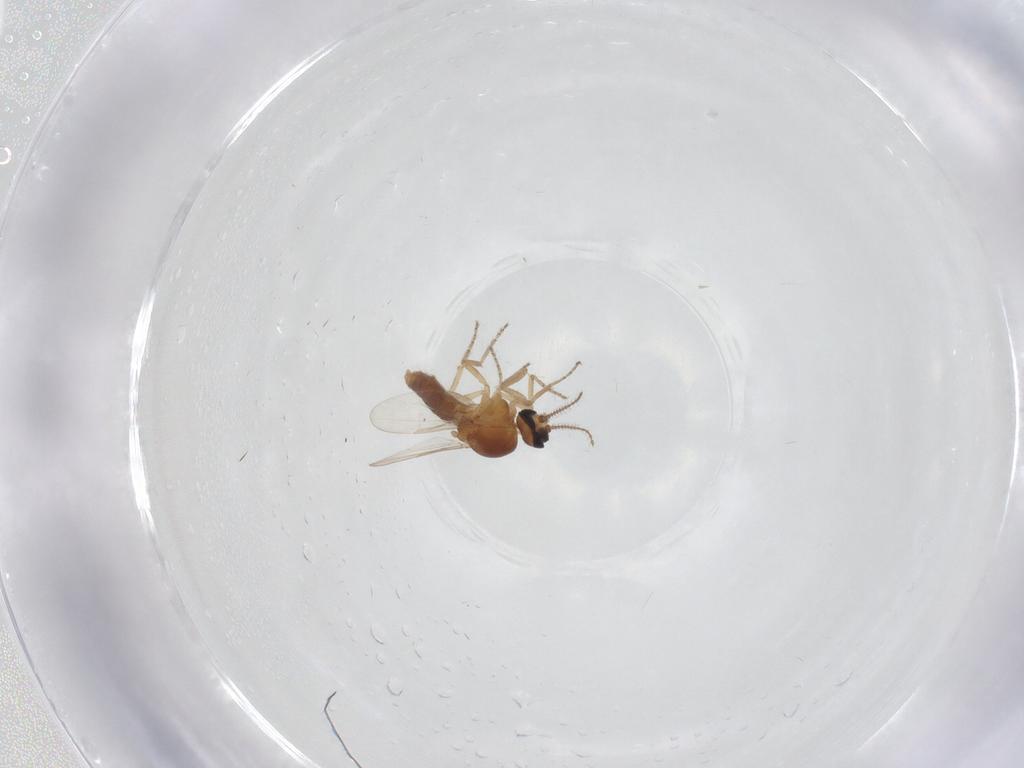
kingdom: Animalia
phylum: Arthropoda
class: Insecta
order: Diptera
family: Ceratopogonidae
